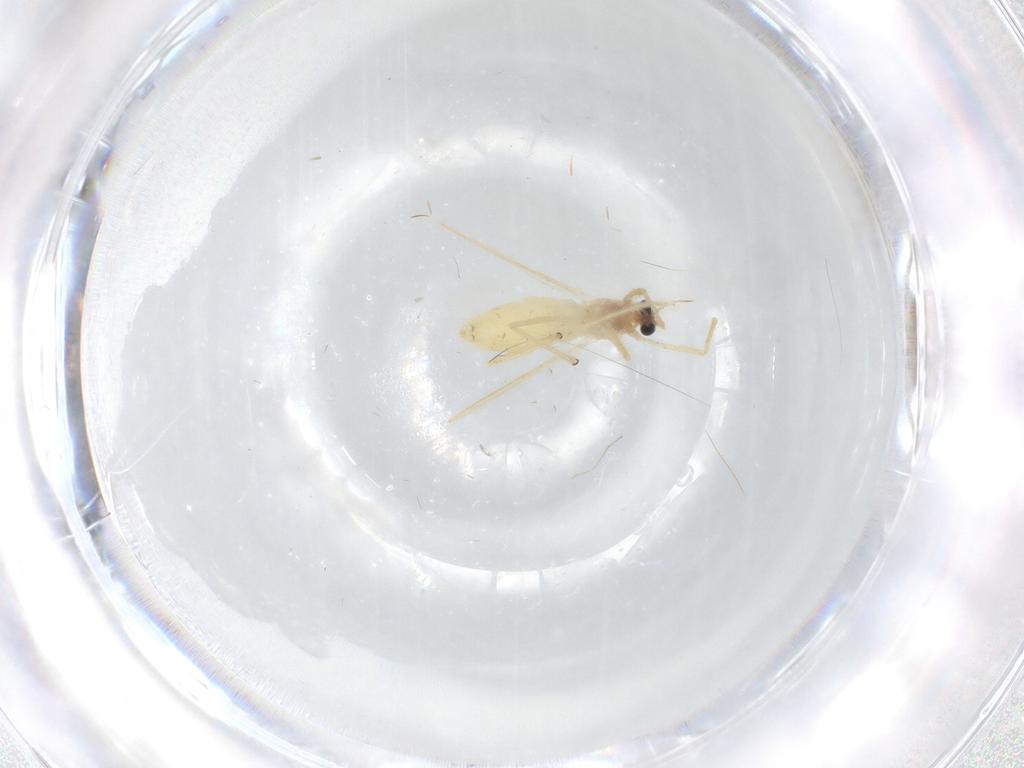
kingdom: Animalia
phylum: Arthropoda
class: Insecta
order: Diptera
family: Chironomidae
